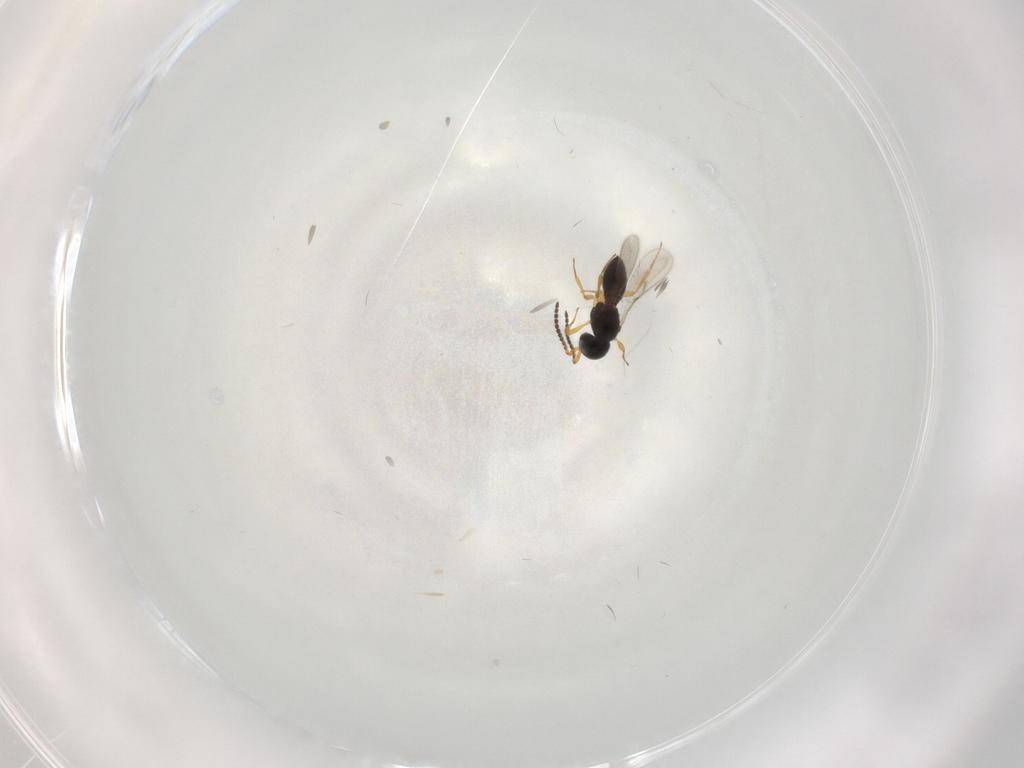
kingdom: Animalia
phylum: Arthropoda
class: Insecta
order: Hymenoptera
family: Scelionidae
